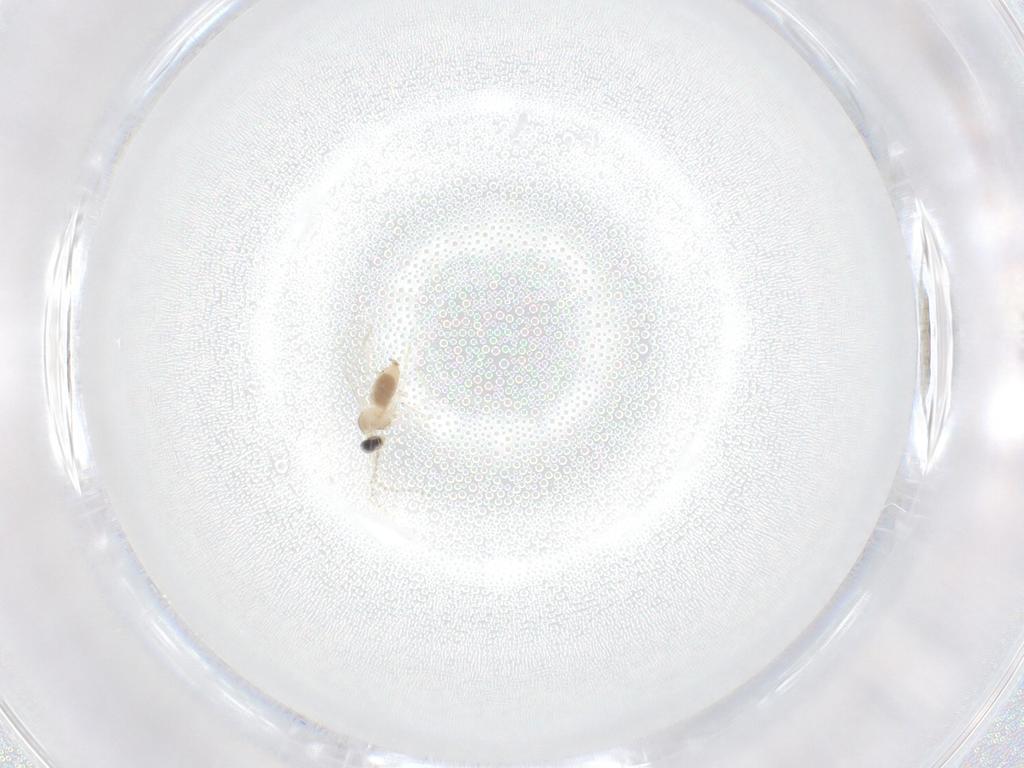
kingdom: Animalia
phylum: Arthropoda
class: Insecta
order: Diptera
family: Cecidomyiidae
